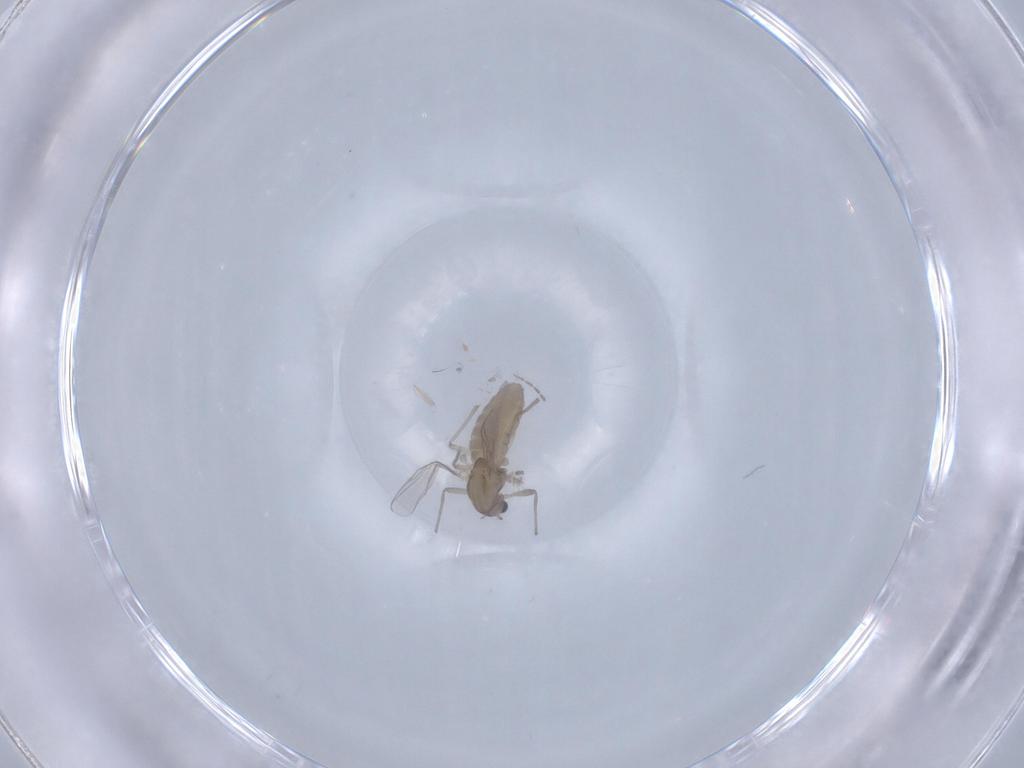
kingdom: Animalia
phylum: Arthropoda
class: Insecta
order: Diptera
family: Chironomidae
